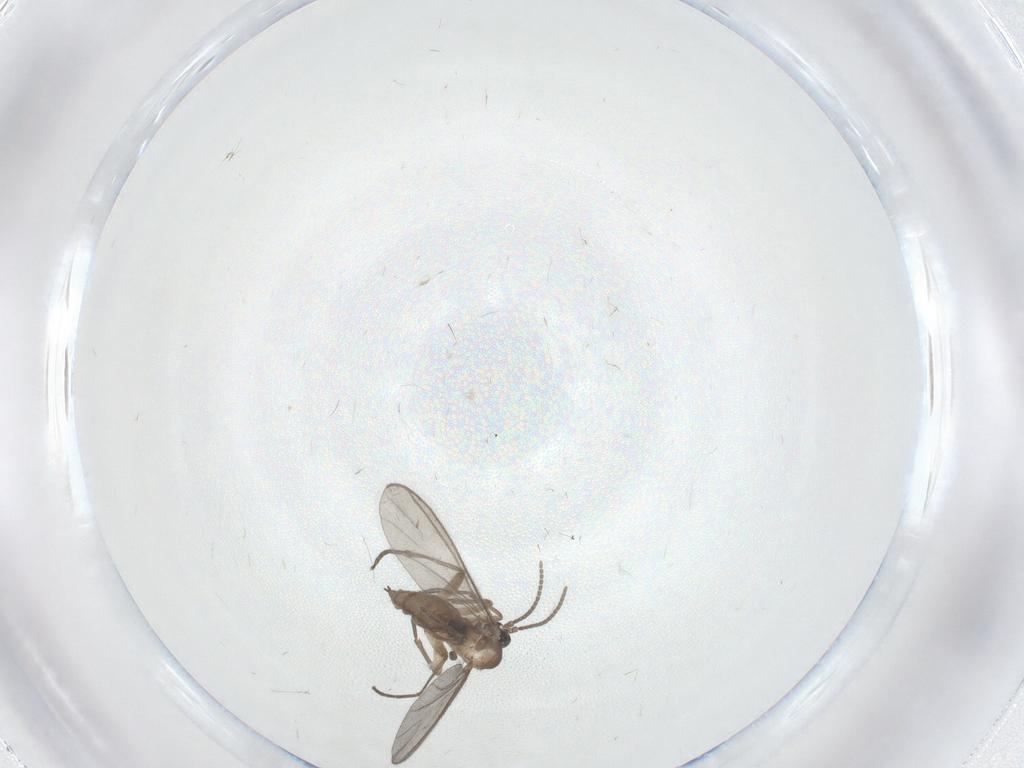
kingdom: Animalia
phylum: Arthropoda
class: Insecta
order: Diptera
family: Sciaridae
